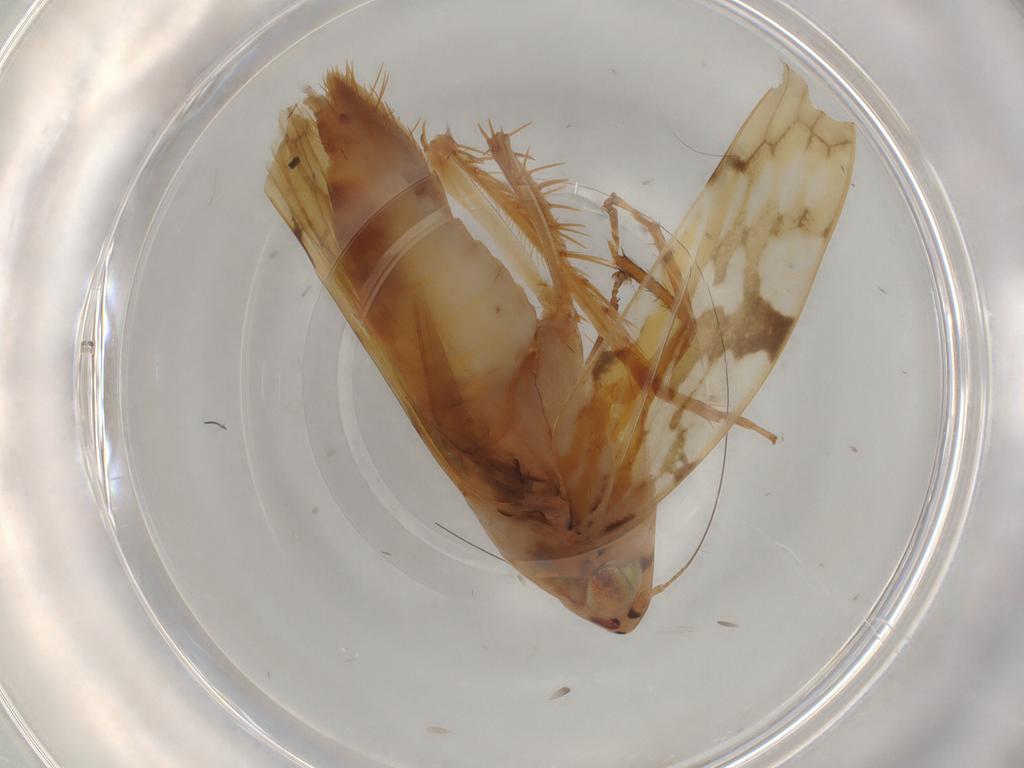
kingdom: Animalia
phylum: Arthropoda
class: Insecta
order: Hemiptera
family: Cicadellidae
